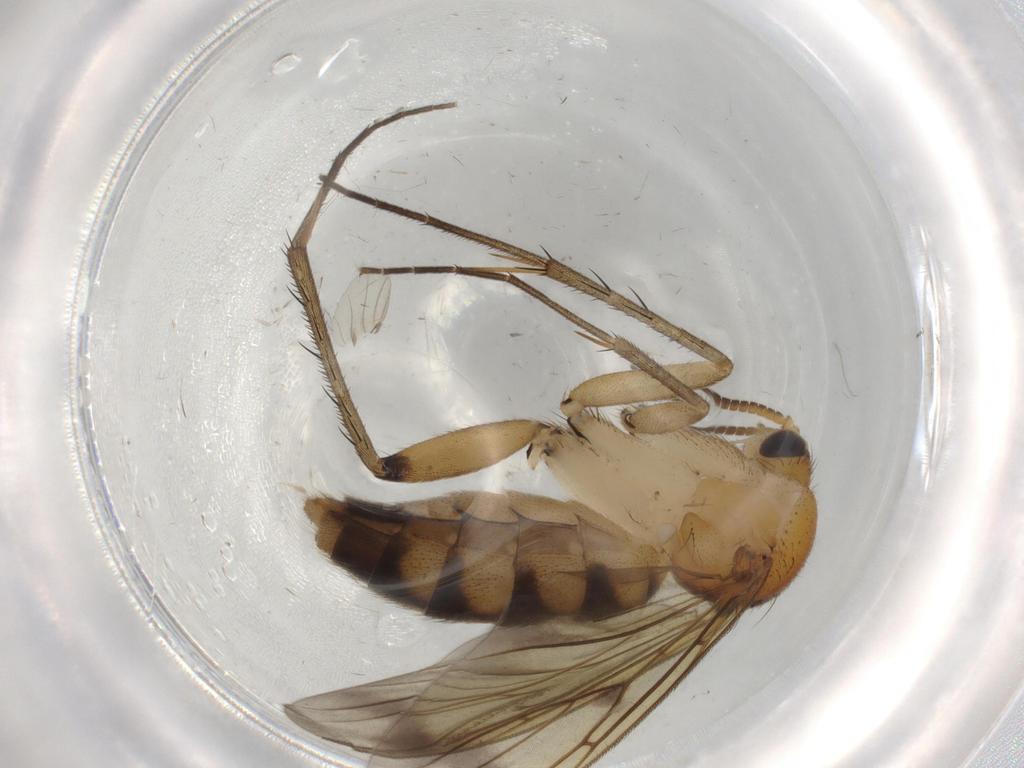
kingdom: Animalia
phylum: Arthropoda
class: Insecta
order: Diptera
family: Mycetophilidae
